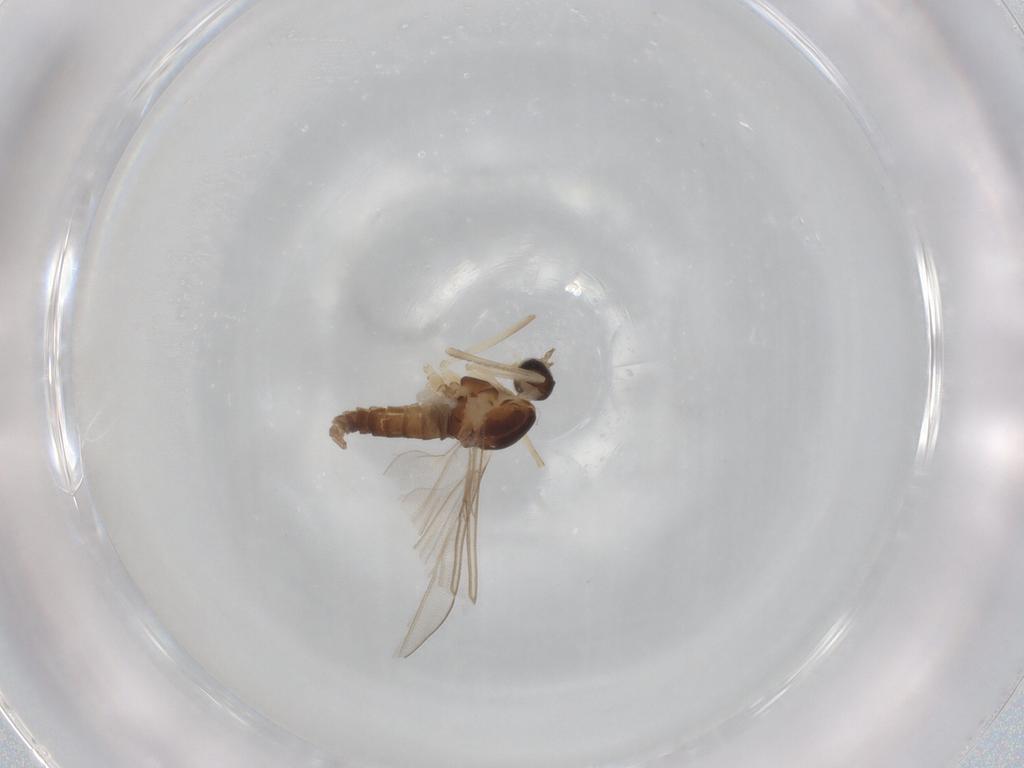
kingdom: Animalia
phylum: Arthropoda
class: Insecta
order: Diptera
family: Cecidomyiidae
